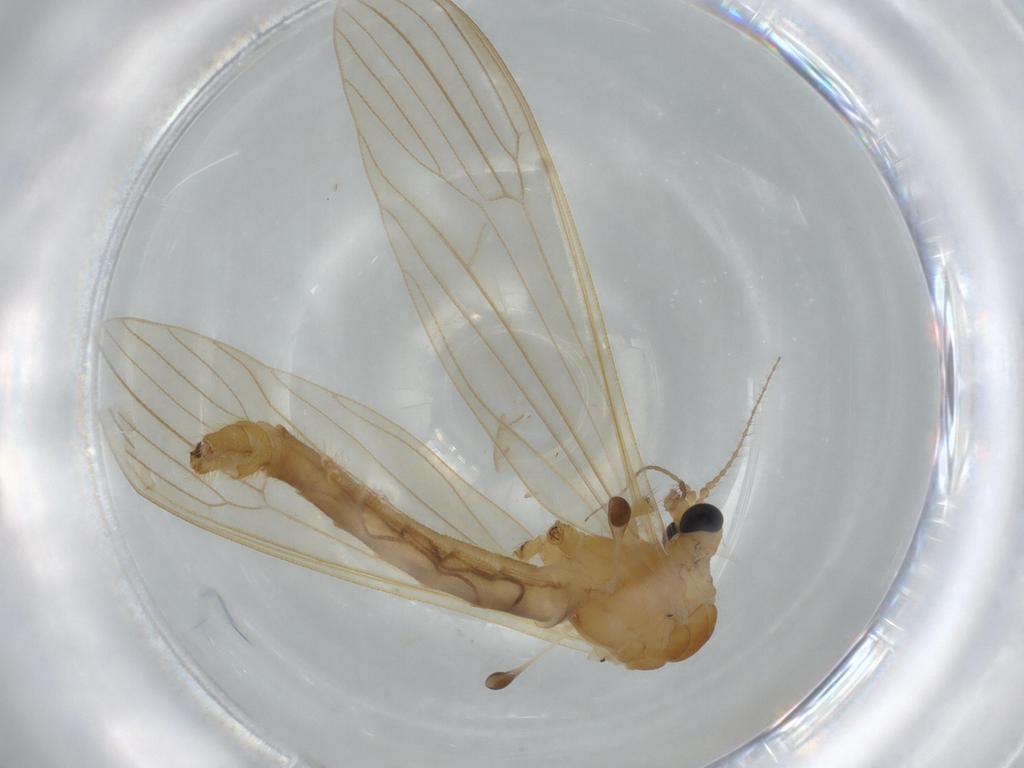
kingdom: Animalia
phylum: Arthropoda
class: Insecta
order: Diptera
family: Limoniidae
